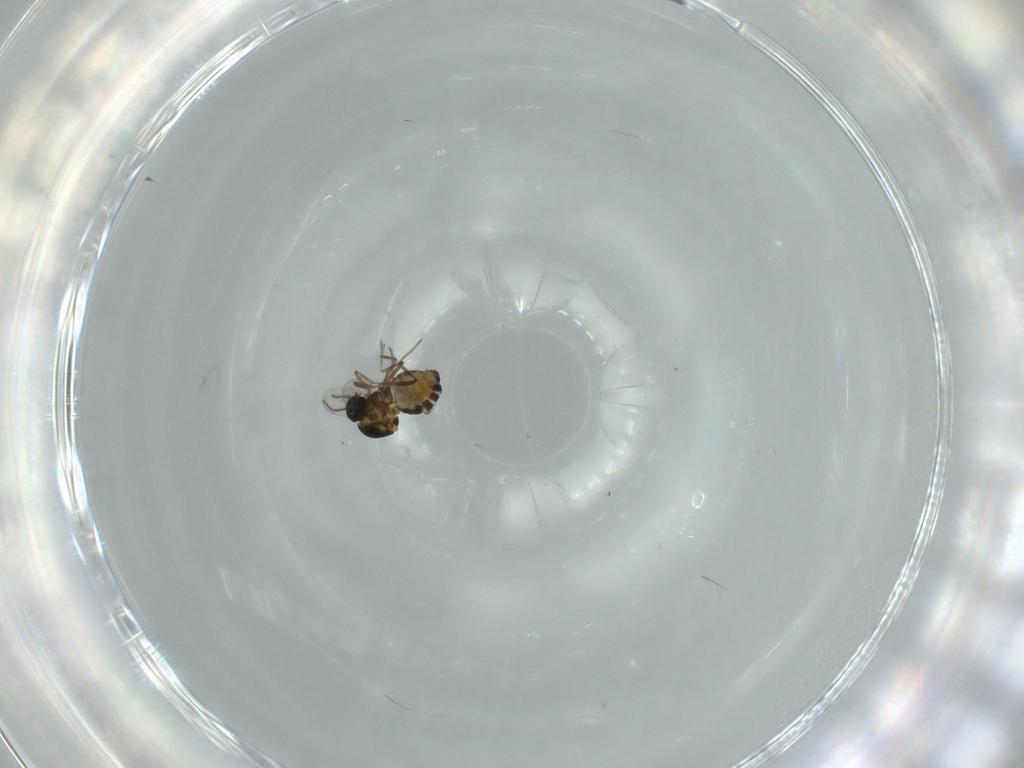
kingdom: Animalia
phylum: Arthropoda
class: Insecta
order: Diptera
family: Ceratopogonidae
